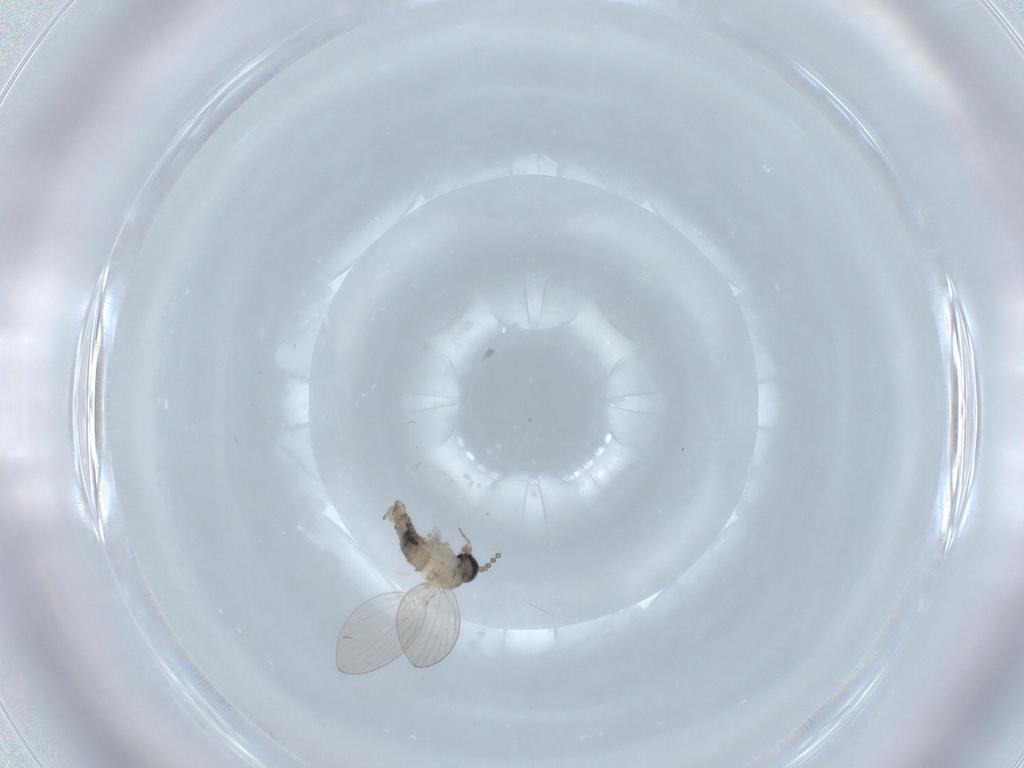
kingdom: Animalia
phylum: Arthropoda
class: Insecta
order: Diptera
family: Psychodidae
